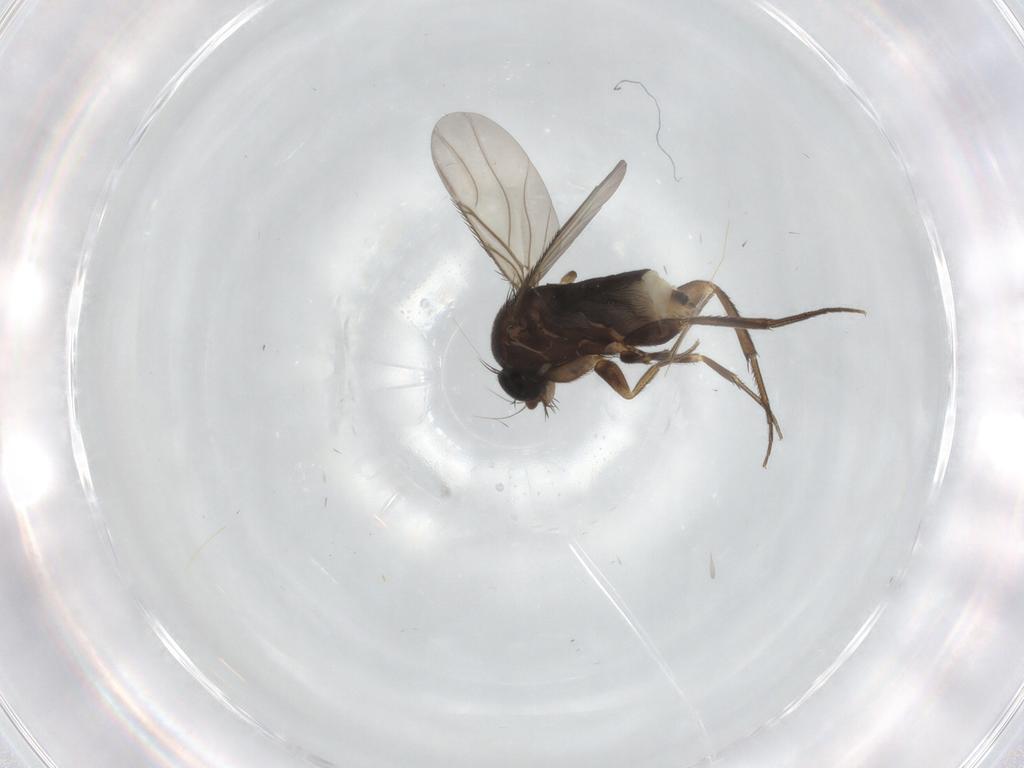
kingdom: Animalia
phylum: Arthropoda
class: Insecta
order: Diptera
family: Phoridae
